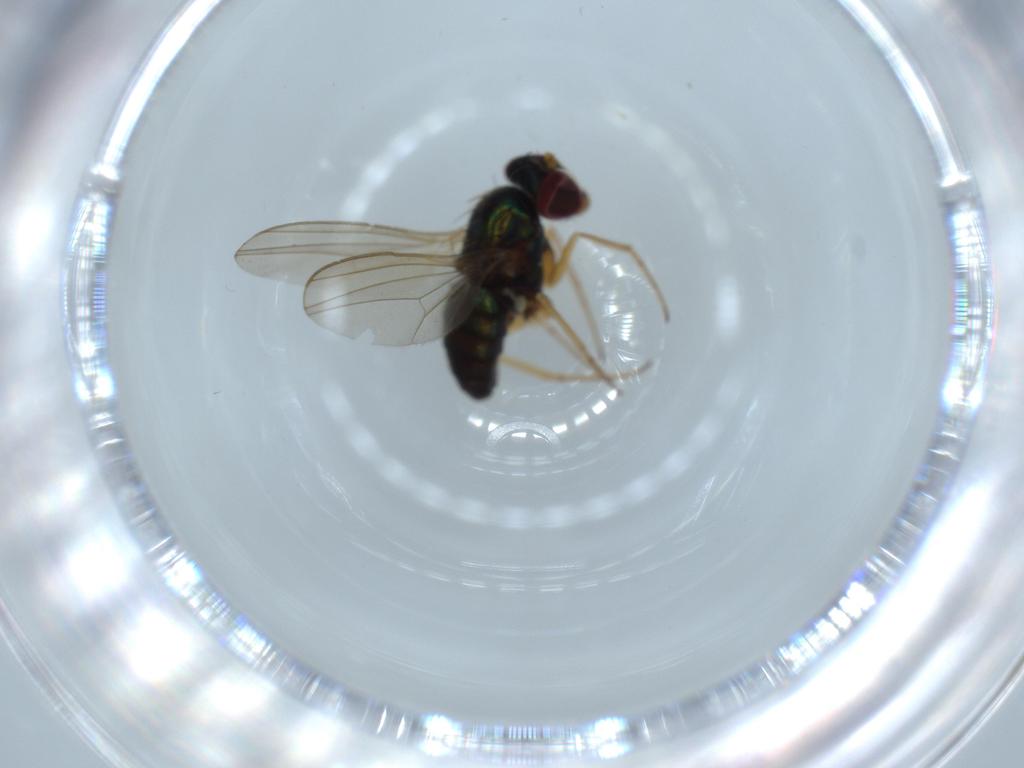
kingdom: Animalia
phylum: Arthropoda
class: Insecta
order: Diptera
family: Dolichopodidae
